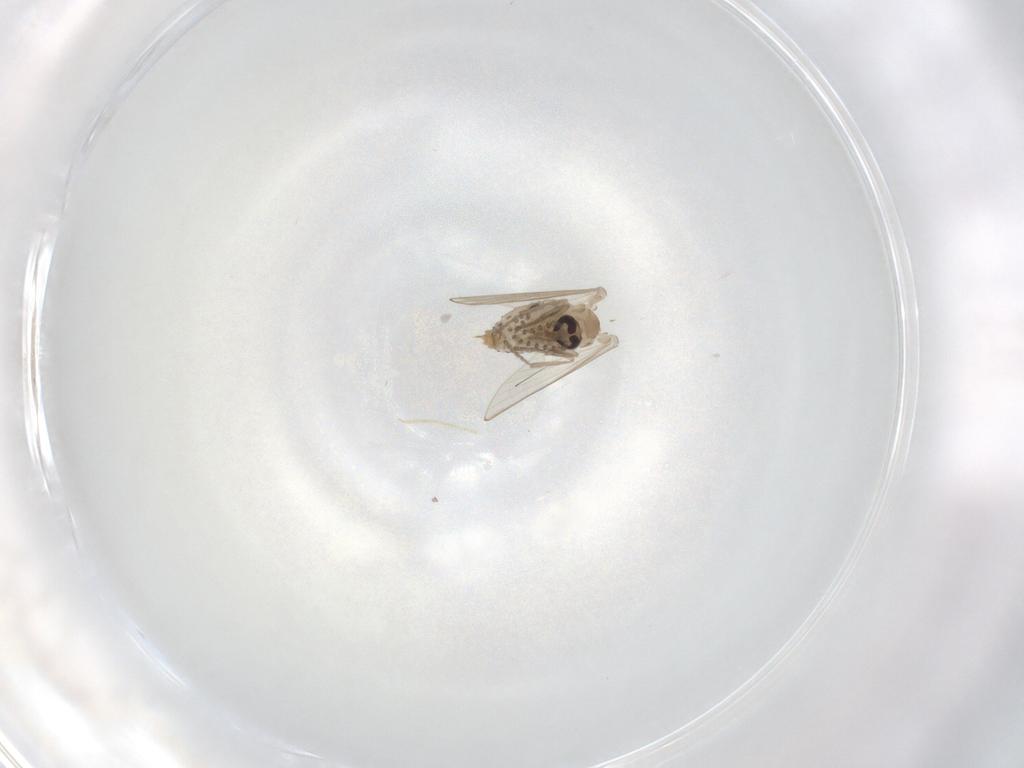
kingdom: Animalia
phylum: Arthropoda
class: Insecta
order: Diptera
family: Psychodidae
